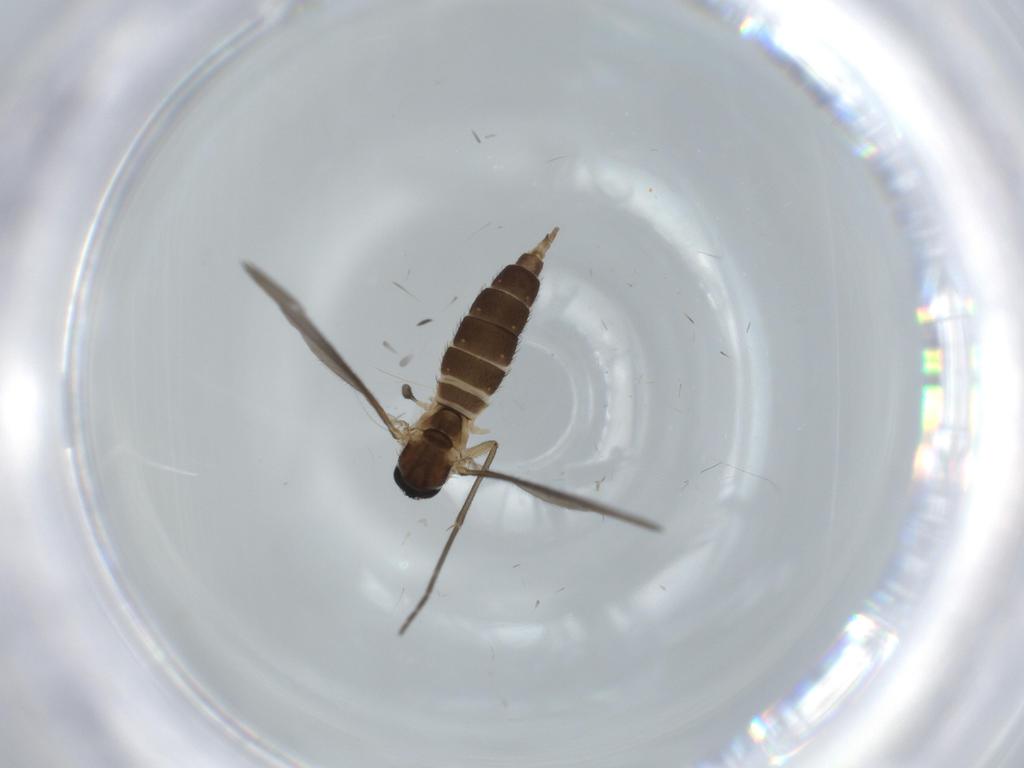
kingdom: Animalia
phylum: Arthropoda
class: Insecta
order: Diptera
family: Sciaridae
